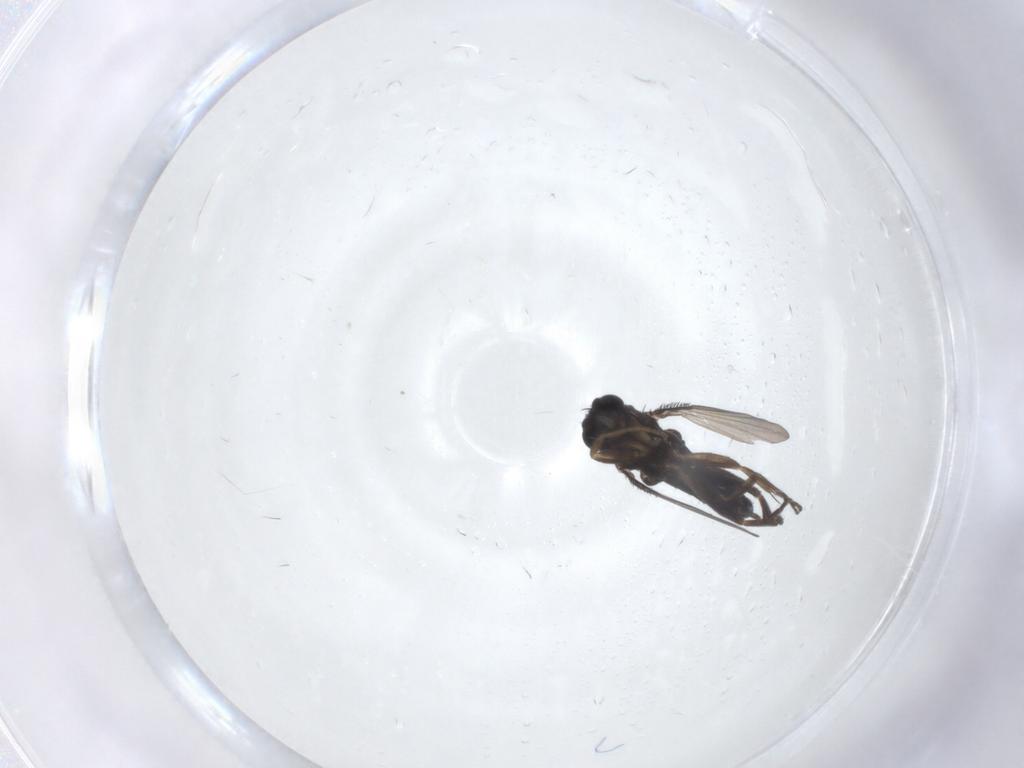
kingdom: Animalia
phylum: Arthropoda
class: Insecta
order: Diptera
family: Phoridae
